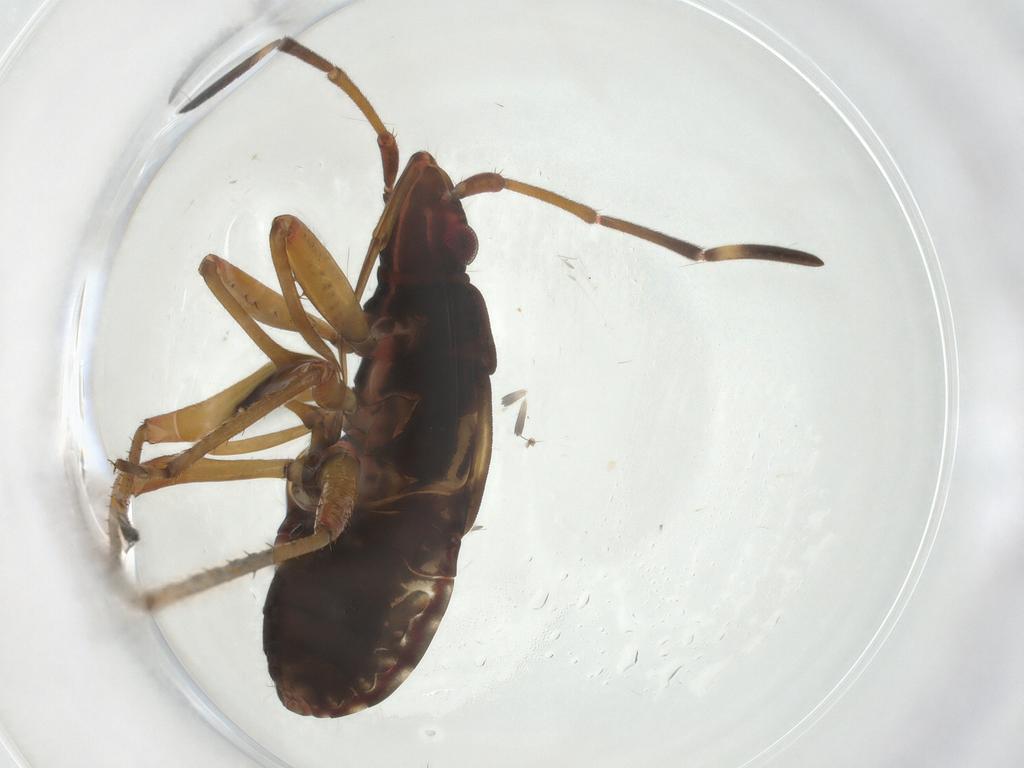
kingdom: Animalia
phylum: Arthropoda
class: Insecta
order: Hemiptera
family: Rhyparochromidae
